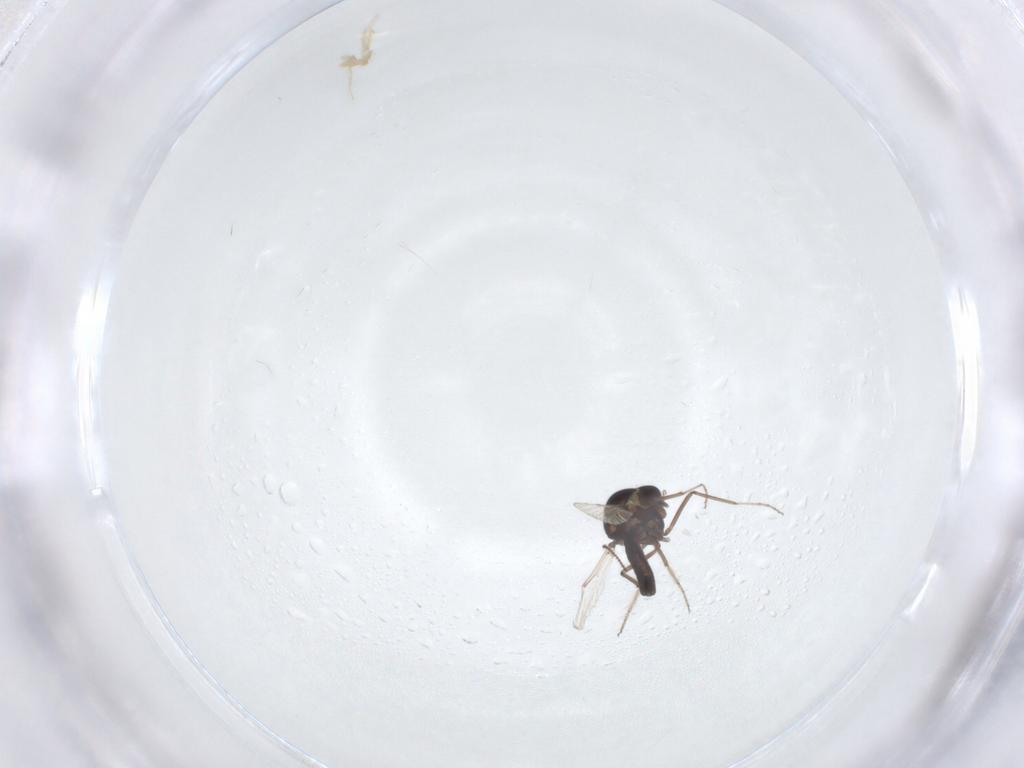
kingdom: Animalia
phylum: Arthropoda
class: Insecta
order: Diptera
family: Ceratopogonidae
